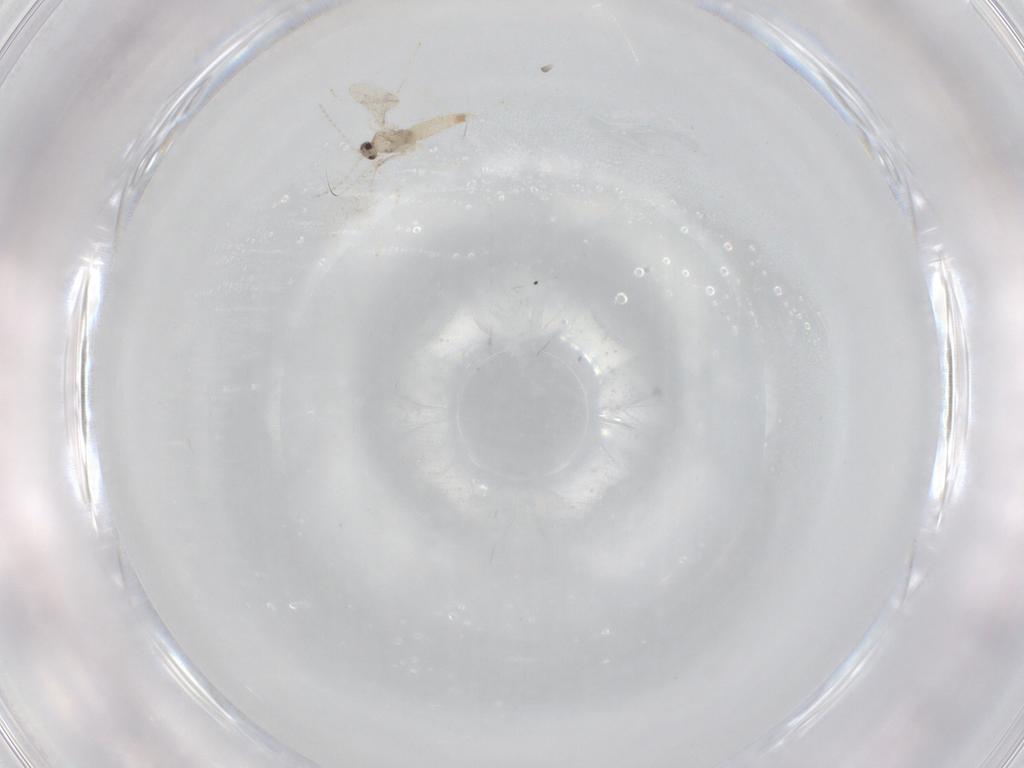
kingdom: Animalia
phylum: Arthropoda
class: Insecta
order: Diptera
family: Cecidomyiidae
